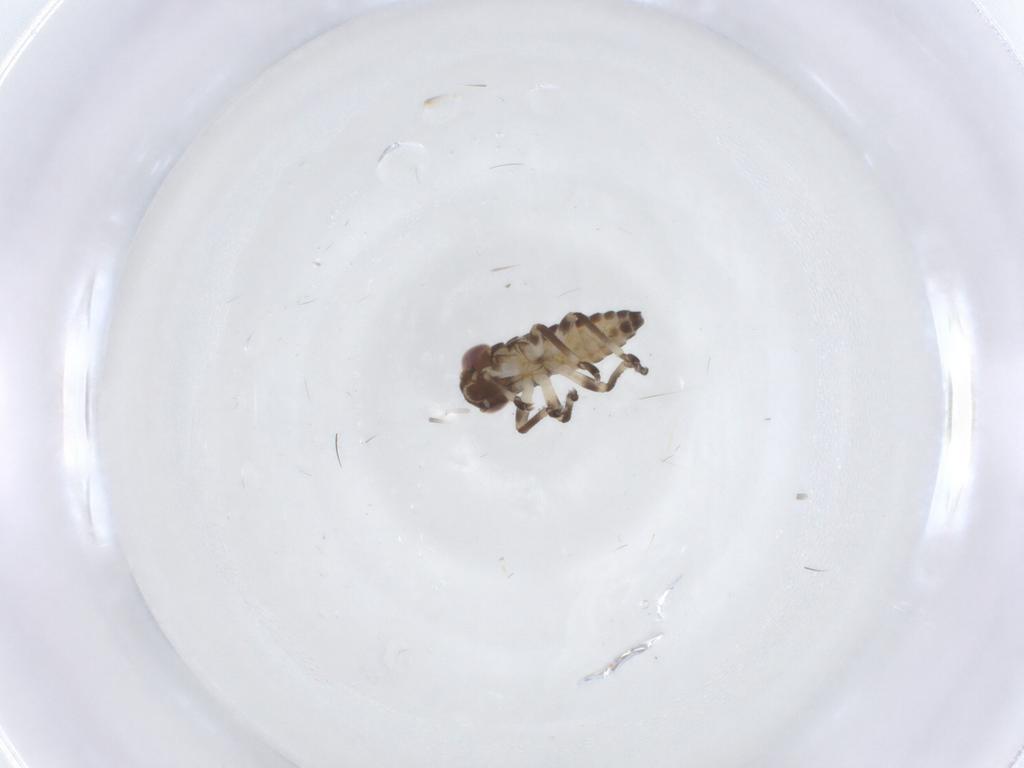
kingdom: Animalia
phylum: Arthropoda
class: Insecta
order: Hemiptera
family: Cicadellidae
